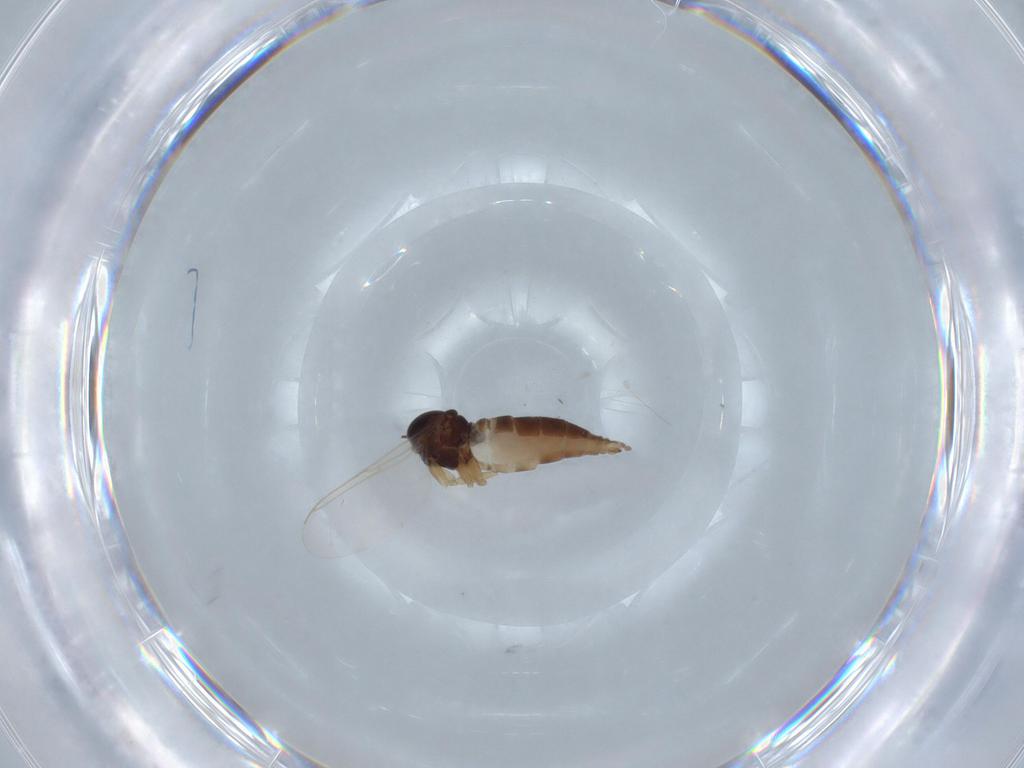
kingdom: Animalia
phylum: Arthropoda
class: Insecta
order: Diptera
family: Sciaridae
